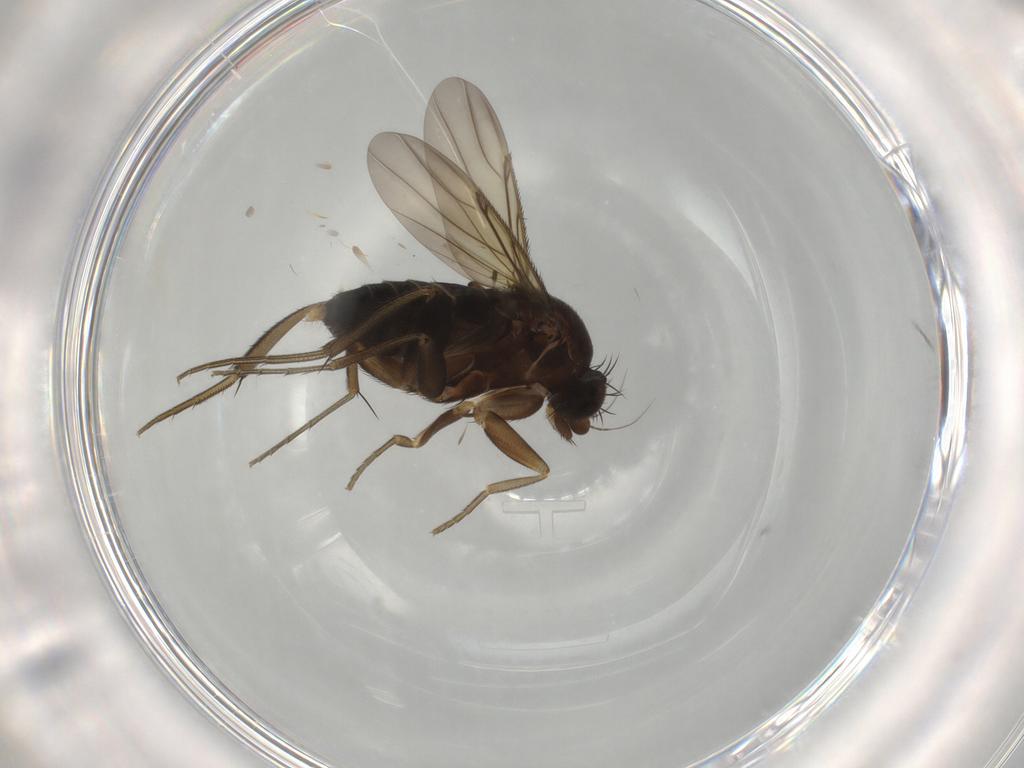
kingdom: Animalia
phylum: Arthropoda
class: Insecta
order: Diptera
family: Phoridae
